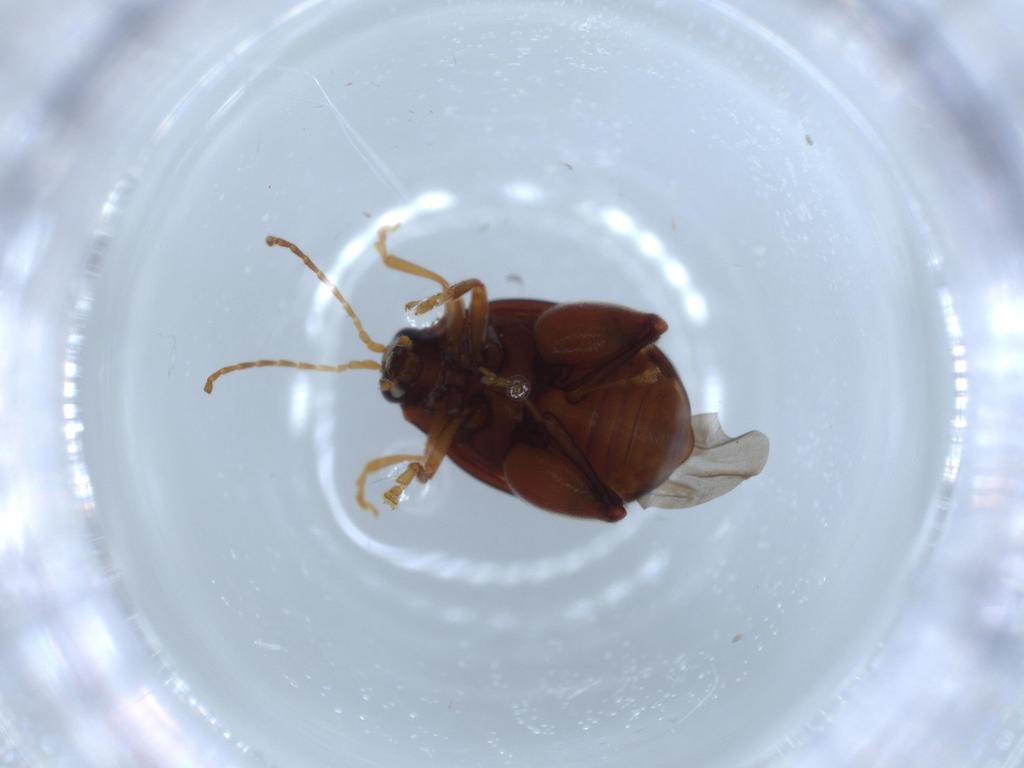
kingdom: Animalia
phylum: Arthropoda
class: Insecta
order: Coleoptera
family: Chrysomelidae
